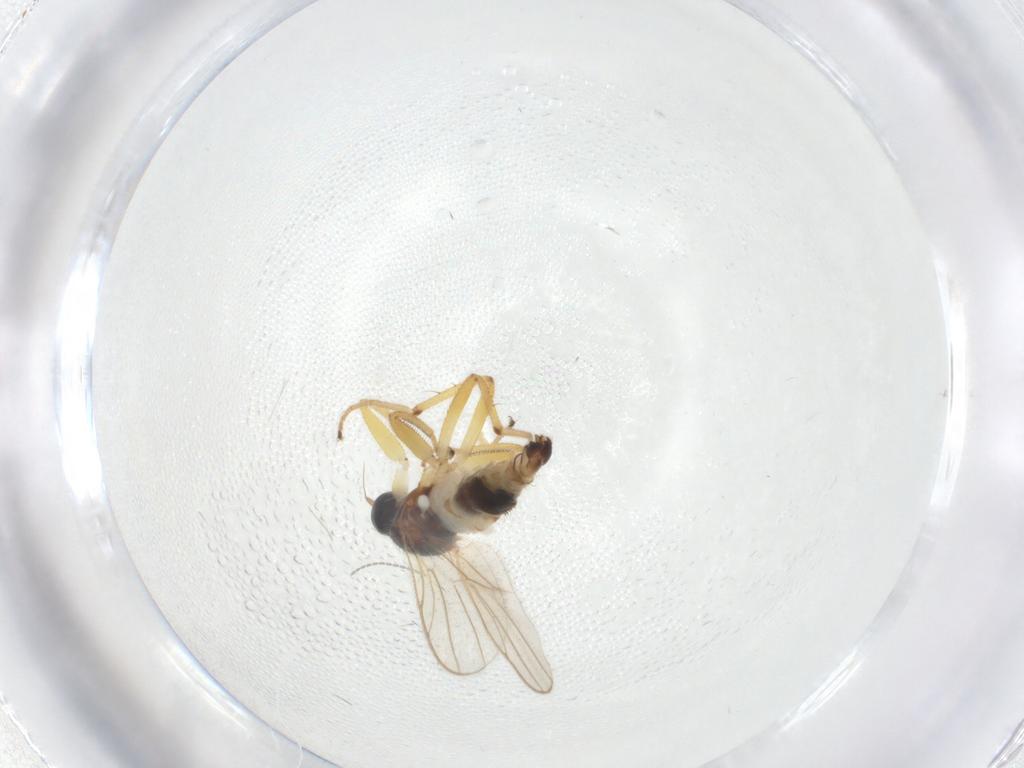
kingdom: Animalia
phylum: Arthropoda
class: Insecta
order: Diptera
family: Hybotidae
